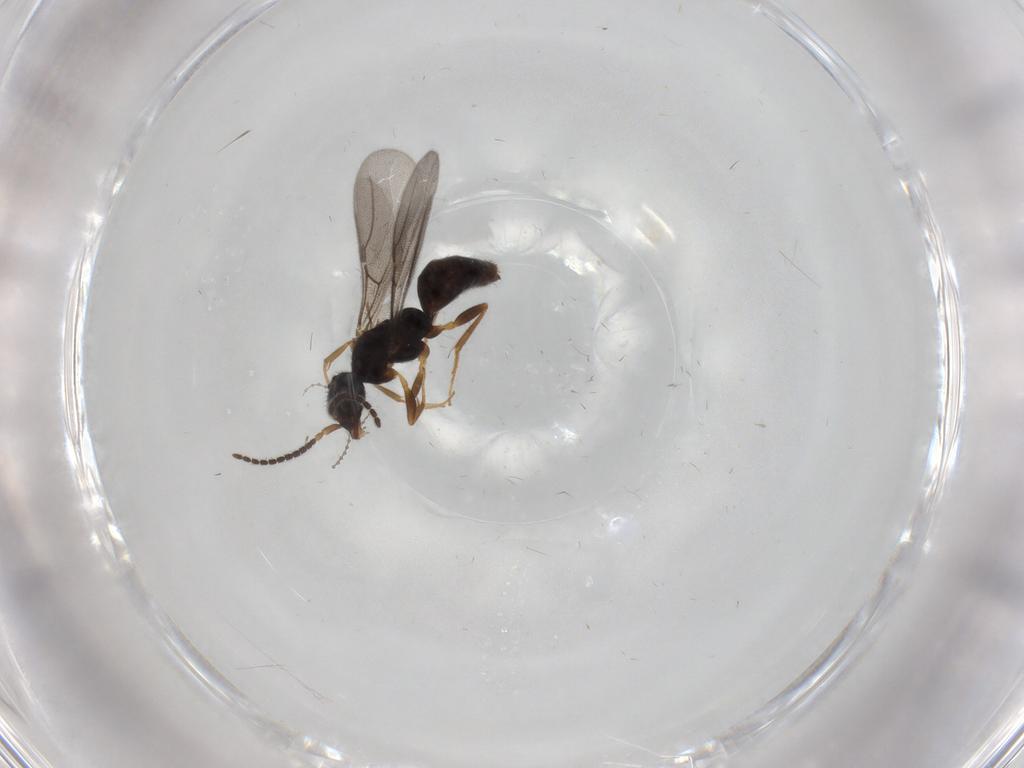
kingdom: Animalia
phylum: Arthropoda
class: Insecta
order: Hymenoptera
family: Bethylidae
